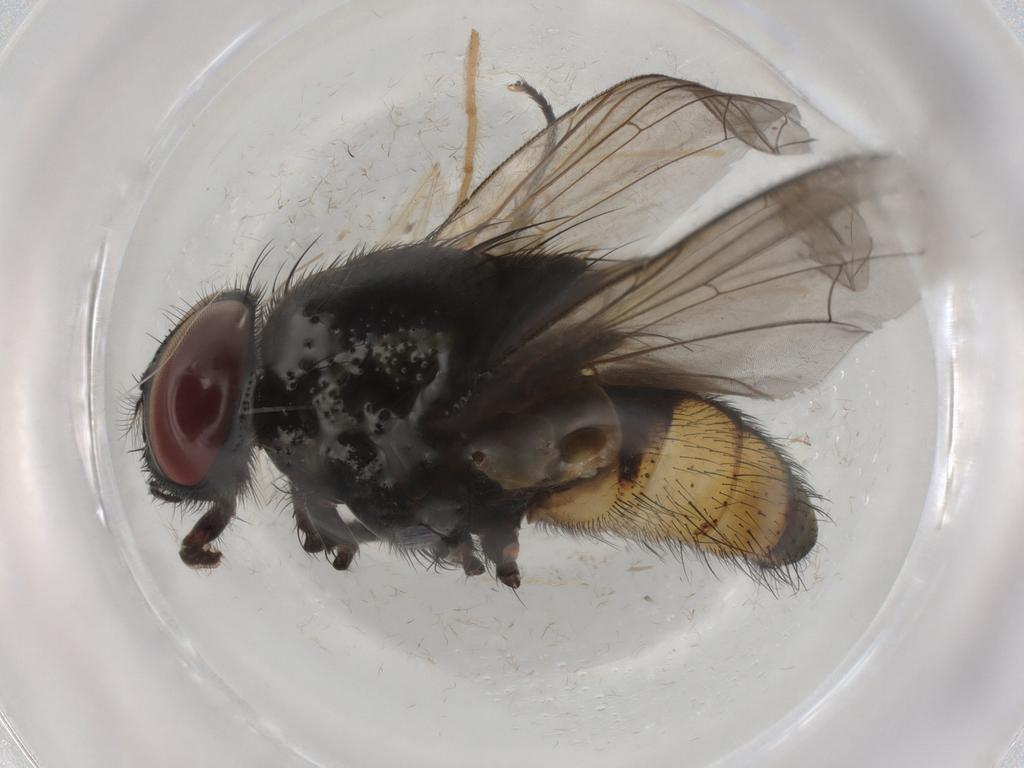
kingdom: Animalia
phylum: Arthropoda
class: Insecta
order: Diptera
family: Muscidae
